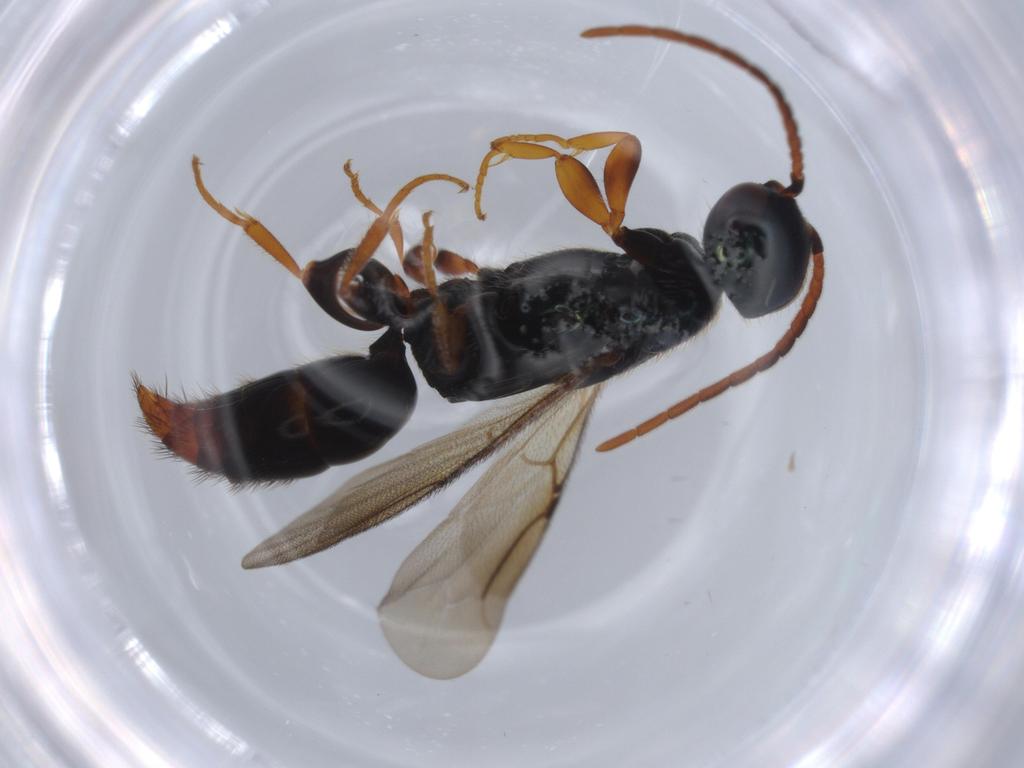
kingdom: Animalia
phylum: Arthropoda
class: Insecta
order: Hymenoptera
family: Bethylidae
